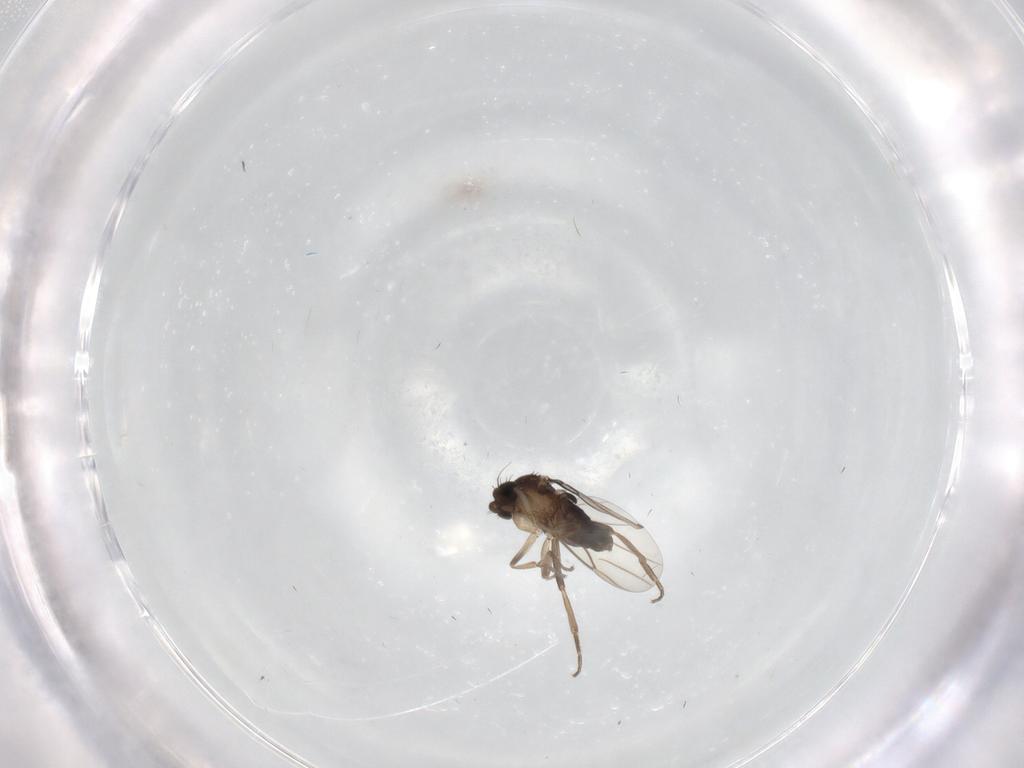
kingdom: Animalia
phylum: Arthropoda
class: Insecta
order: Diptera
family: Phoridae
